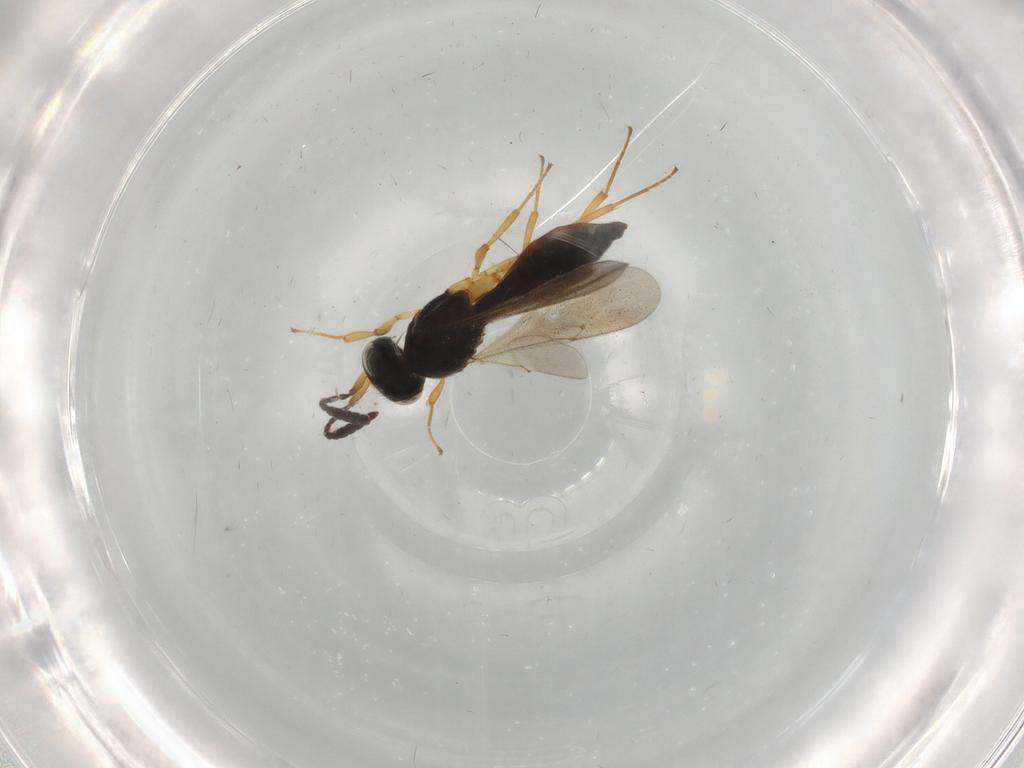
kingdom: Animalia
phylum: Arthropoda
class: Insecta
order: Hymenoptera
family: Scelionidae
